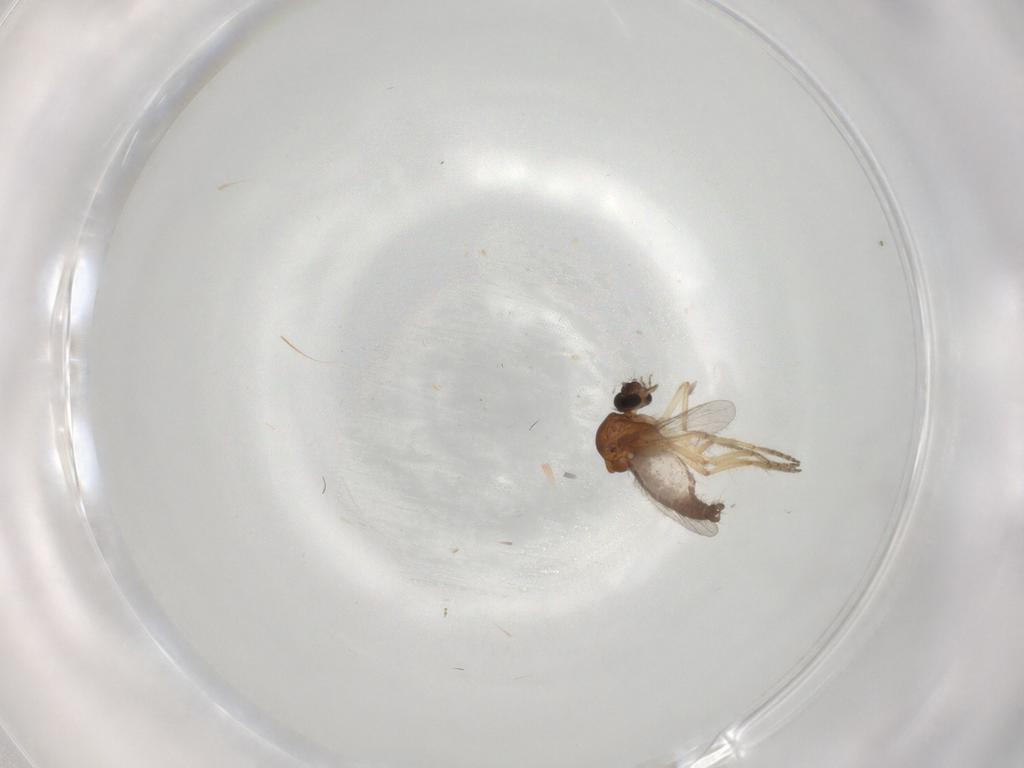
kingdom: Animalia
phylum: Arthropoda
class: Insecta
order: Diptera
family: Ceratopogonidae
